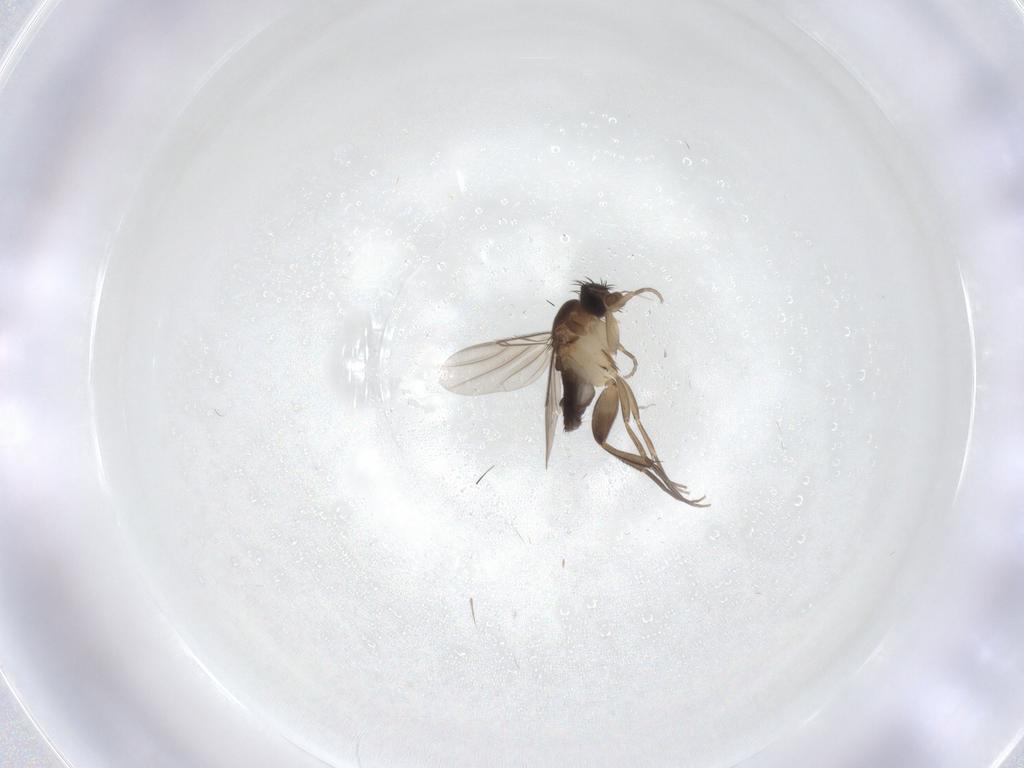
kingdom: Animalia
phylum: Arthropoda
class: Insecta
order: Diptera
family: Phoridae
